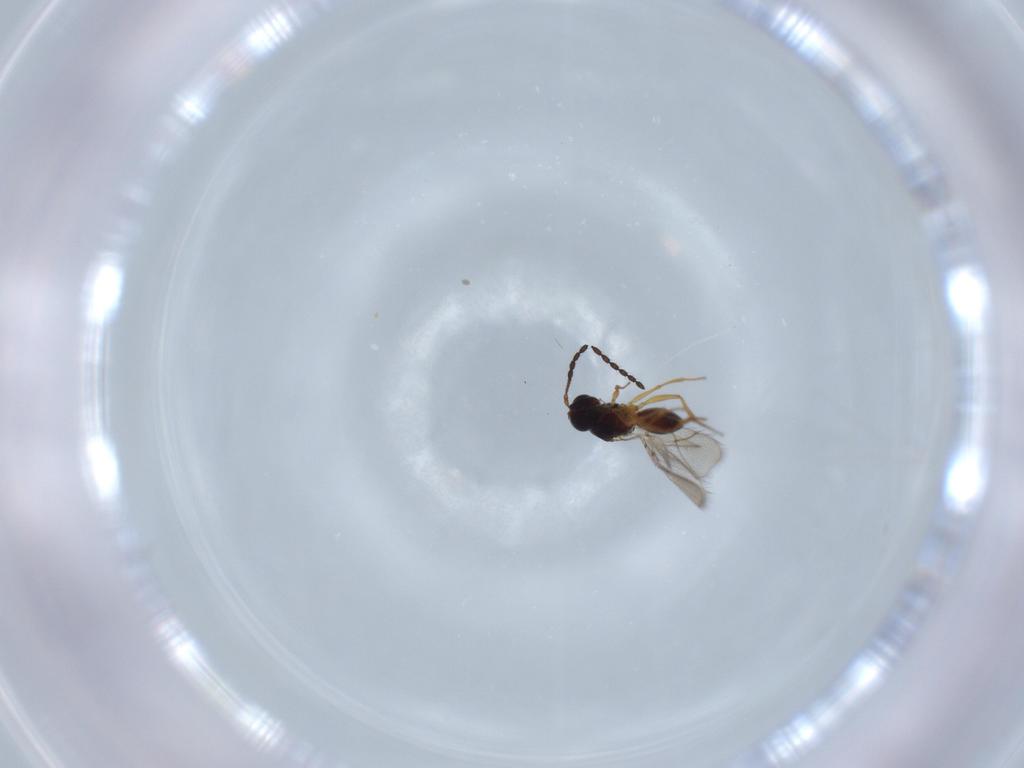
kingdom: Animalia
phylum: Arthropoda
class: Insecta
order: Hymenoptera
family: Figitidae
